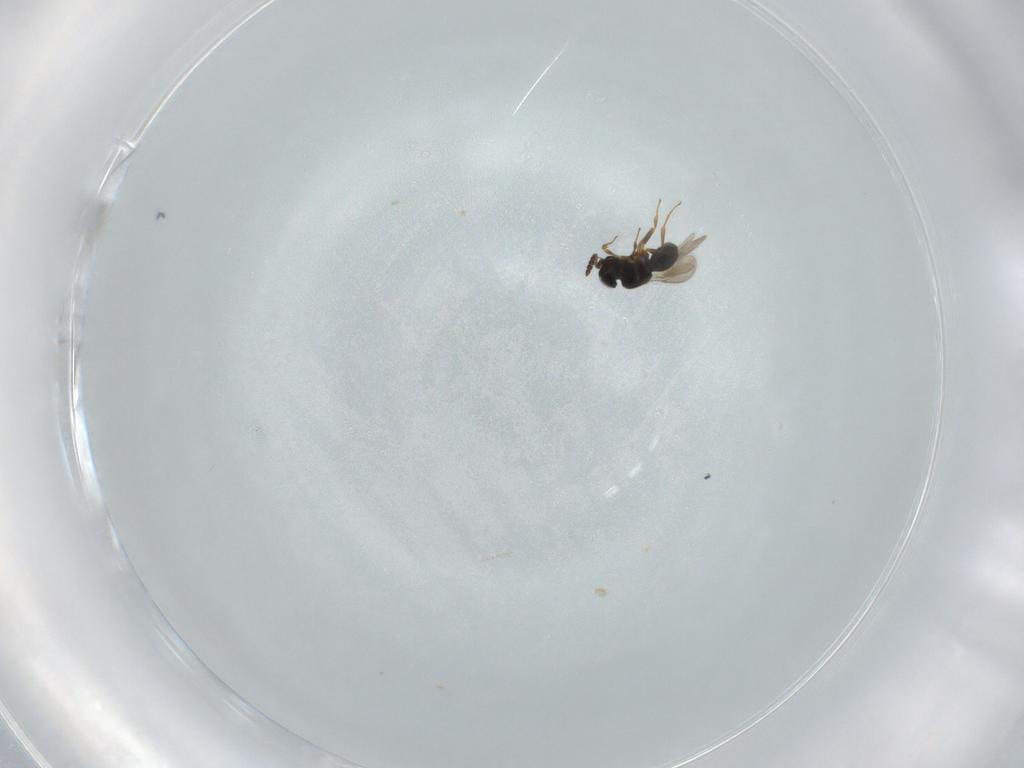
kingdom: Animalia
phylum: Arthropoda
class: Insecta
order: Hymenoptera
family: Scelionidae
